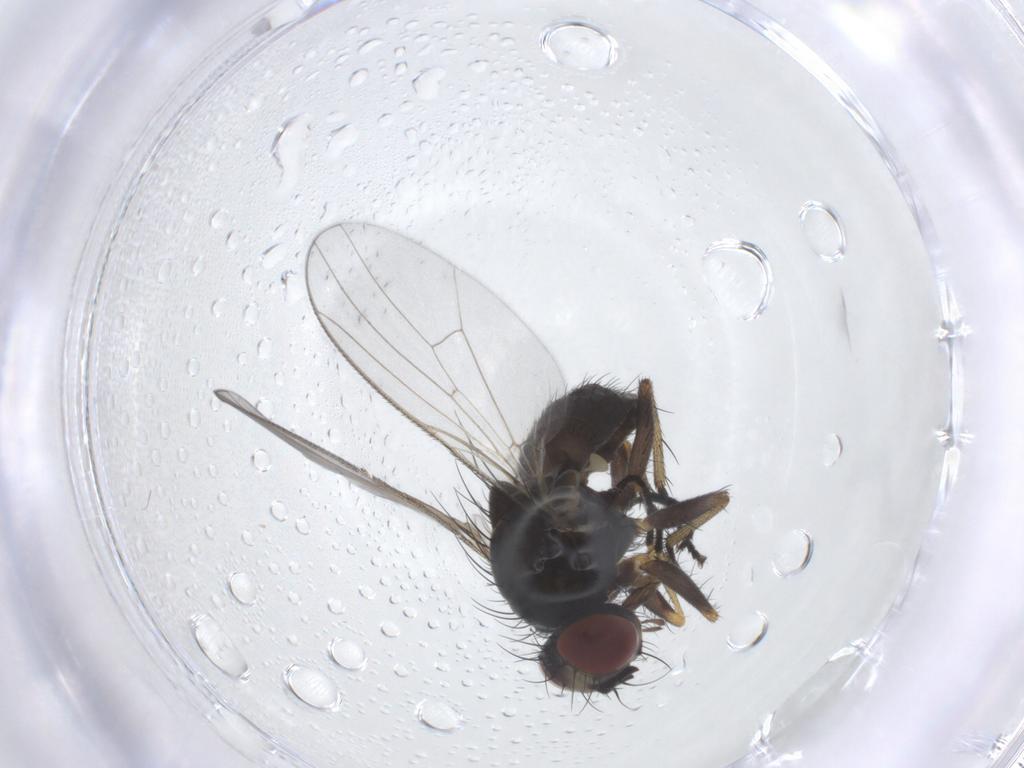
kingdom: Animalia
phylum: Arthropoda
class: Insecta
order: Diptera
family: Muscidae
